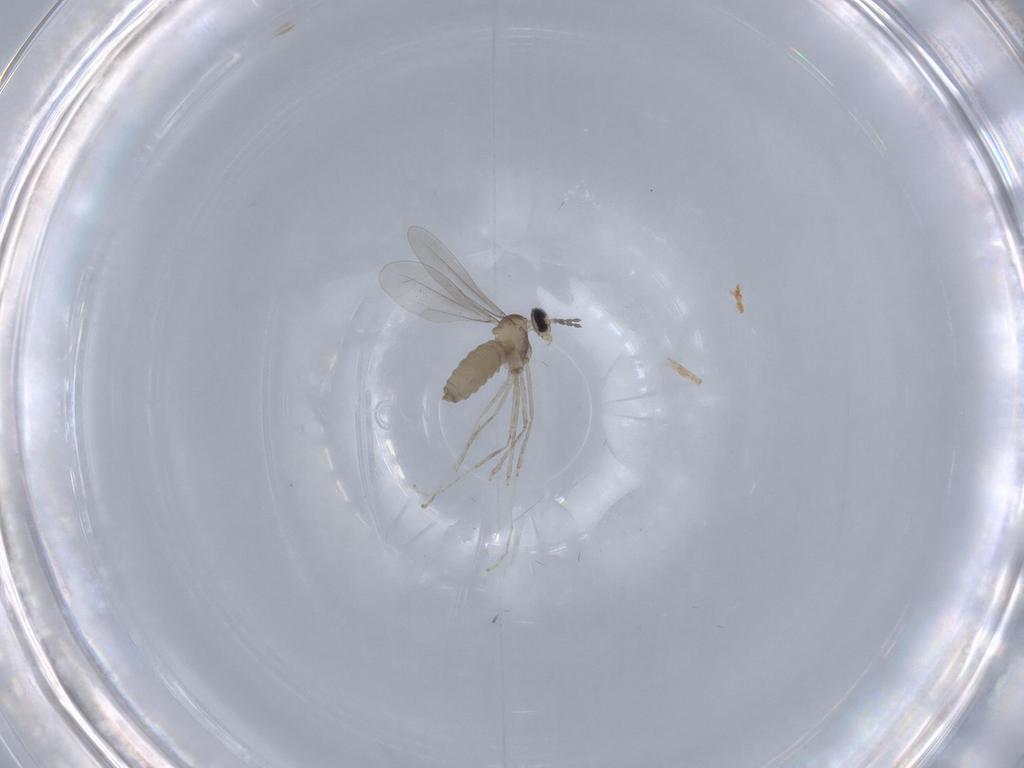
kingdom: Animalia
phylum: Arthropoda
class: Insecta
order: Diptera
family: Cecidomyiidae
